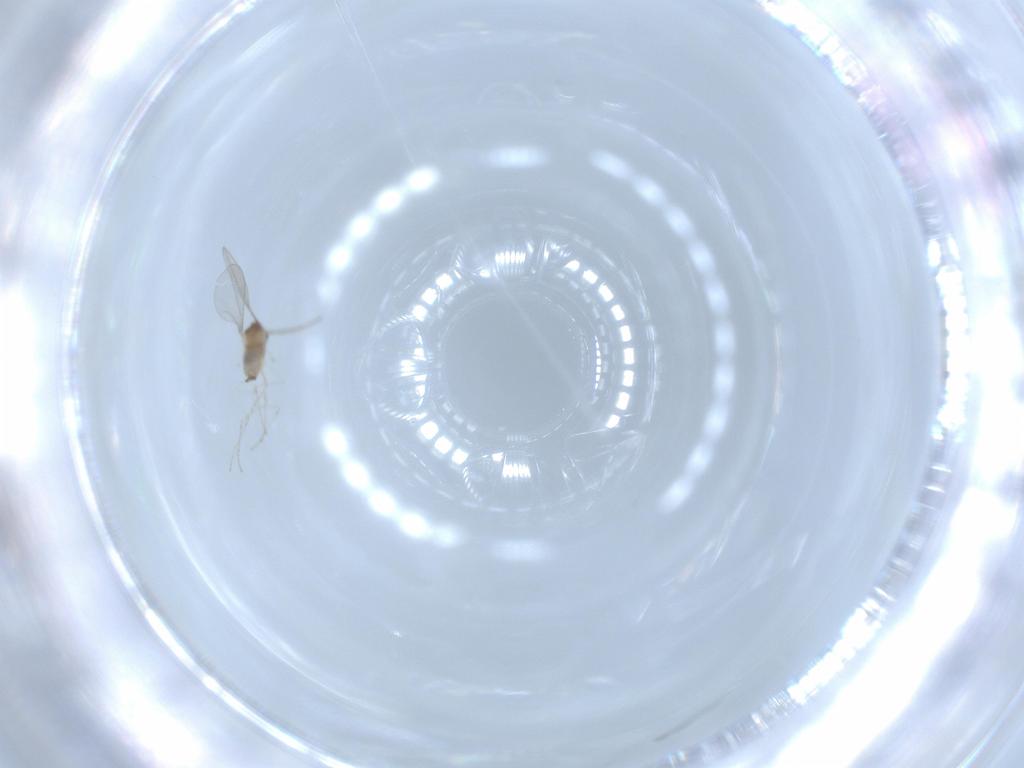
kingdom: Animalia
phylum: Arthropoda
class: Insecta
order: Diptera
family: Cecidomyiidae
